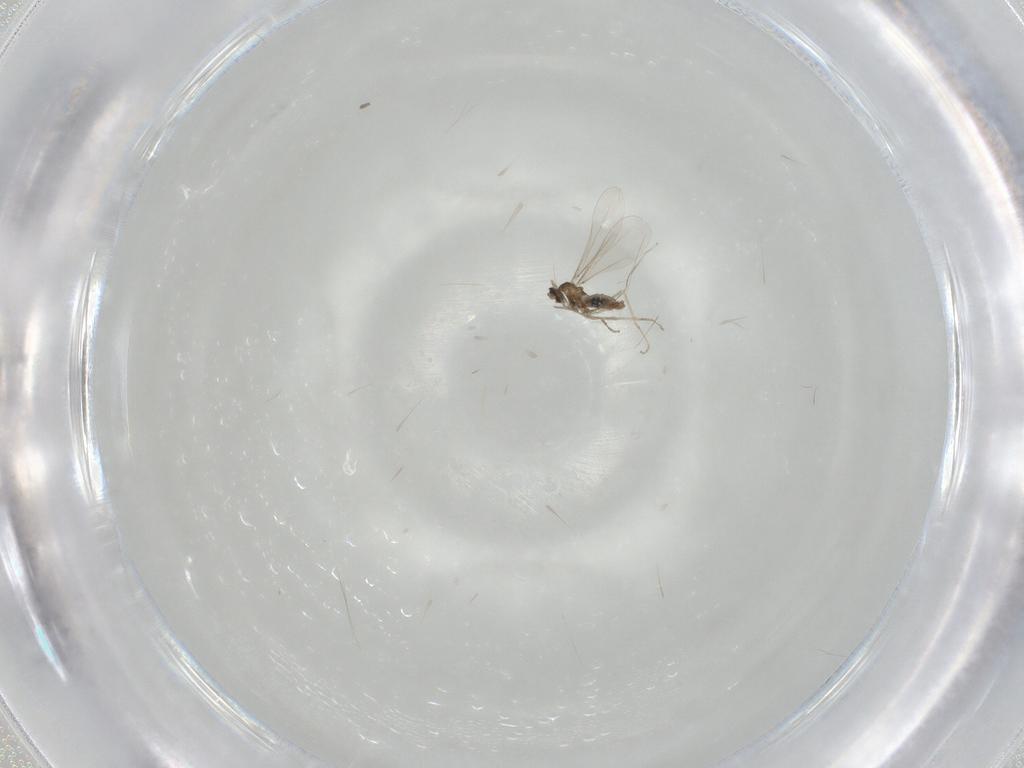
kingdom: Animalia
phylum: Arthropoda
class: Insecta
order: Diptera
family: Cecidomyiidae
